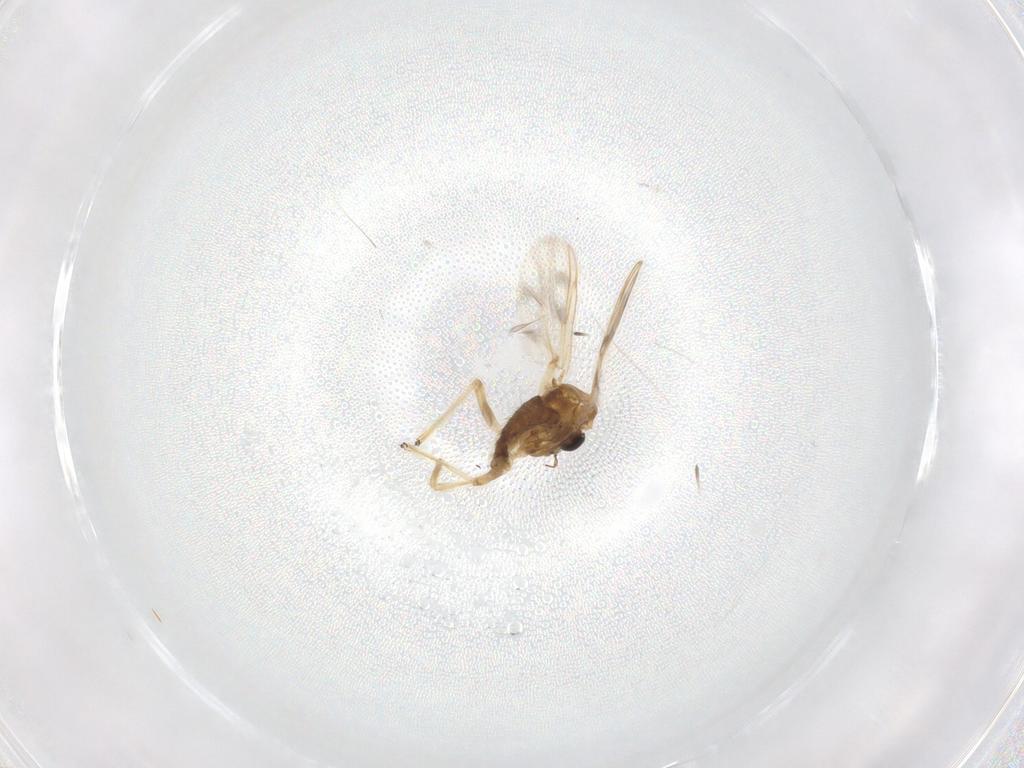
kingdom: Animalia
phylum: Arthropoda
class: Insecta
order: Diptera
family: Chironomidae
